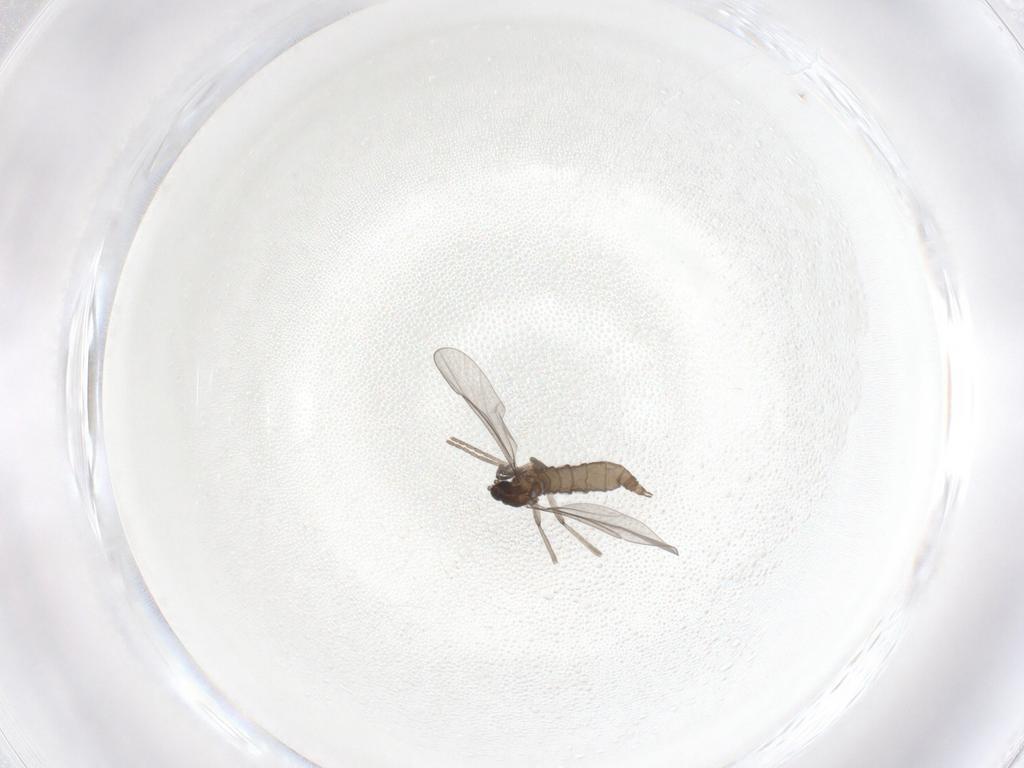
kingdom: Animalia
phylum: Arthropoda
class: Insecta
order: Diptera
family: Cecidomyiidae
